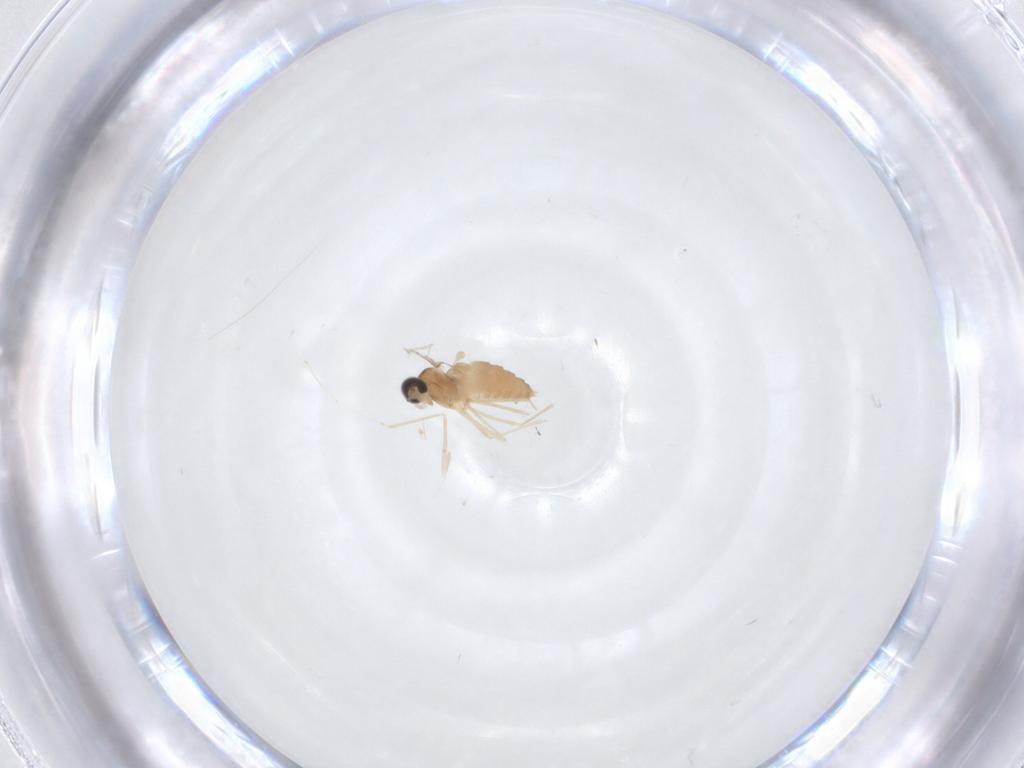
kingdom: Animalia
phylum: Arthropoda
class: Insecta
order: Diptera
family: Cecidomyiidae
